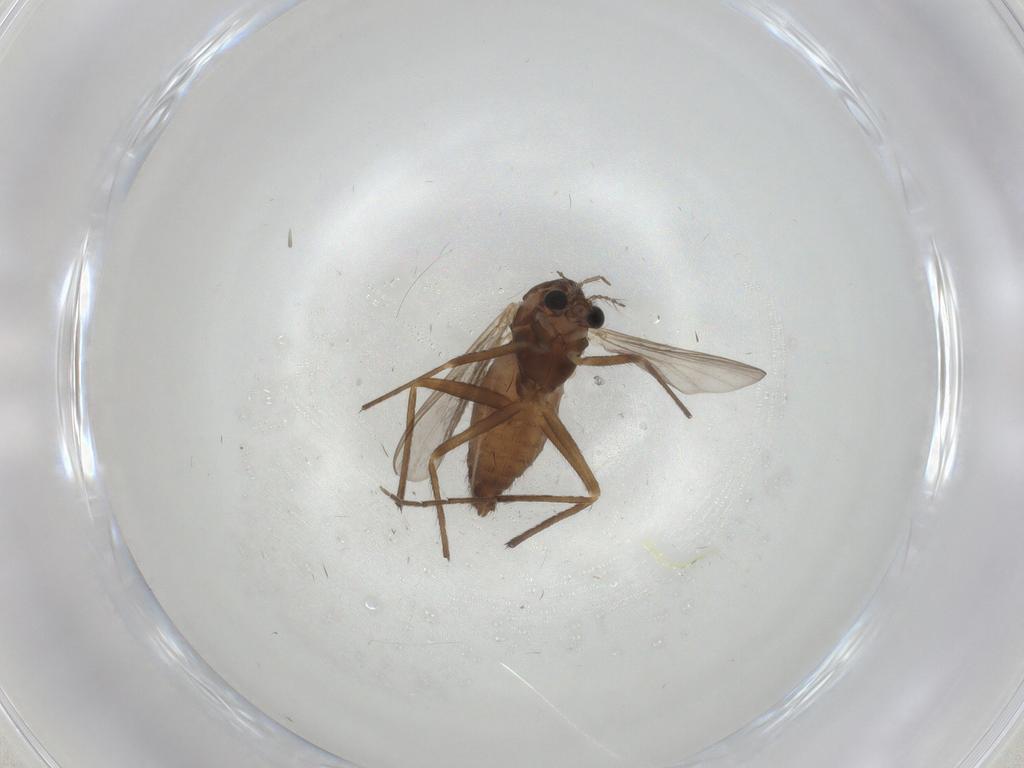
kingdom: Animalia
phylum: Arthropoda
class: Insecta
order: Diptera
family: Chironomidae
